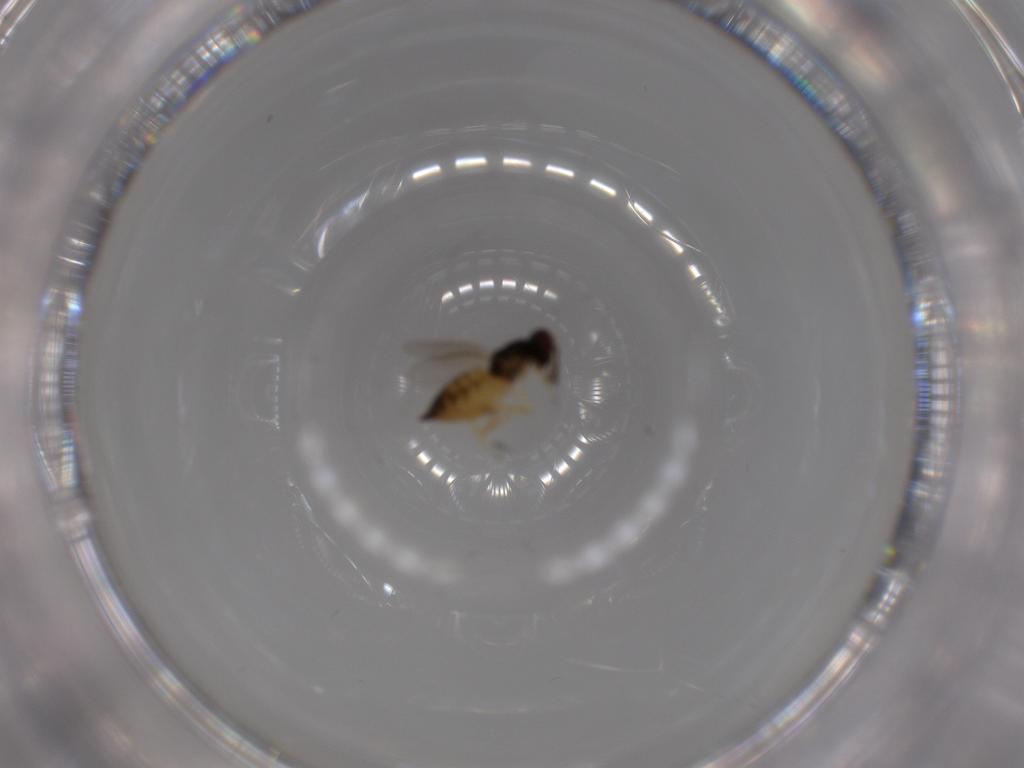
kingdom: Animalia
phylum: Arthropoda
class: Insecta
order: Hymenoptera
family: Eulophidae
